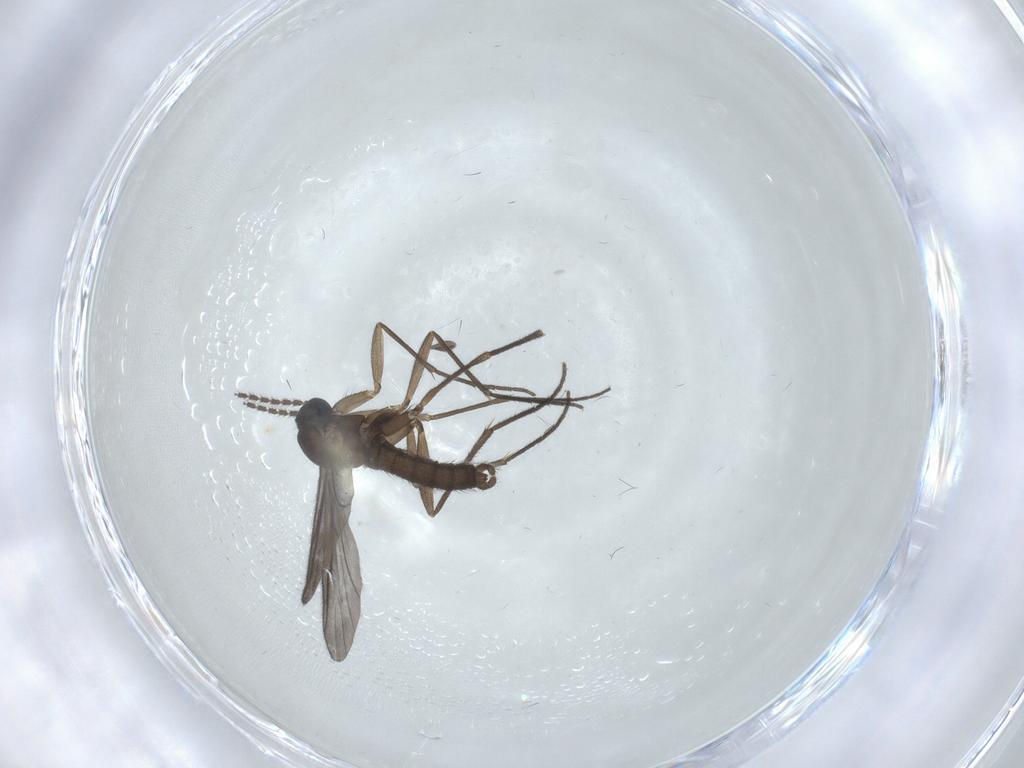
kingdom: Animalia
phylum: Arthropoda
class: Insecta
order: Diptera
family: Sciaridae
